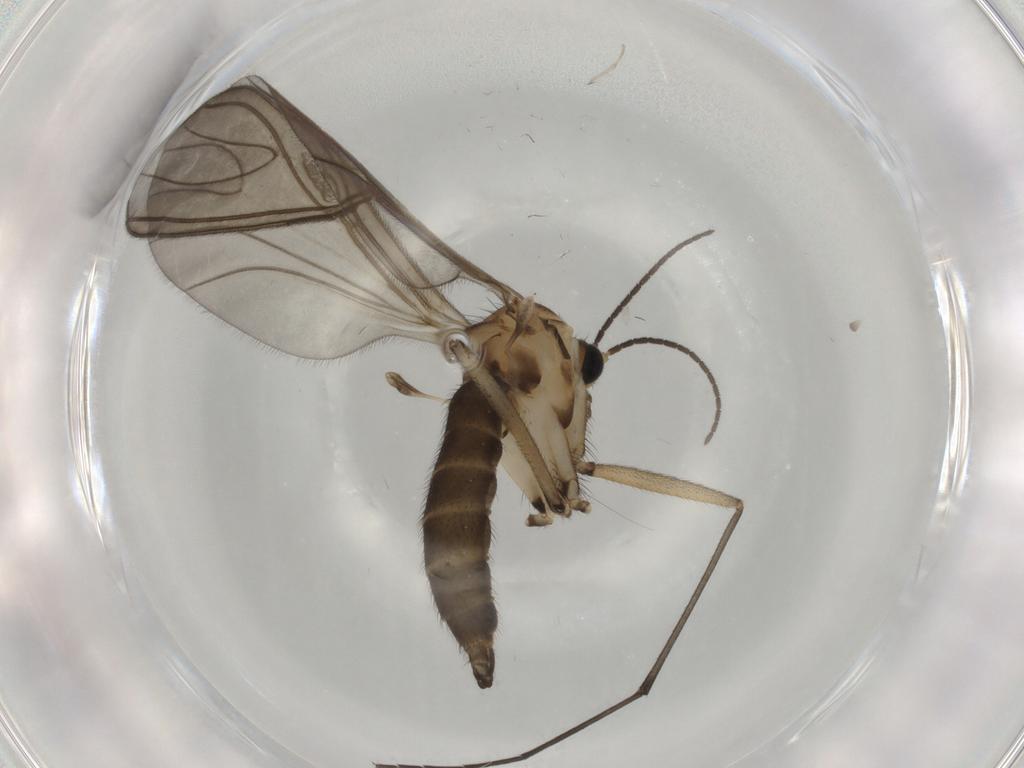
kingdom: Animalia
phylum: Arthropoda
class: Insecta
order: Diptera
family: Sciaridae
